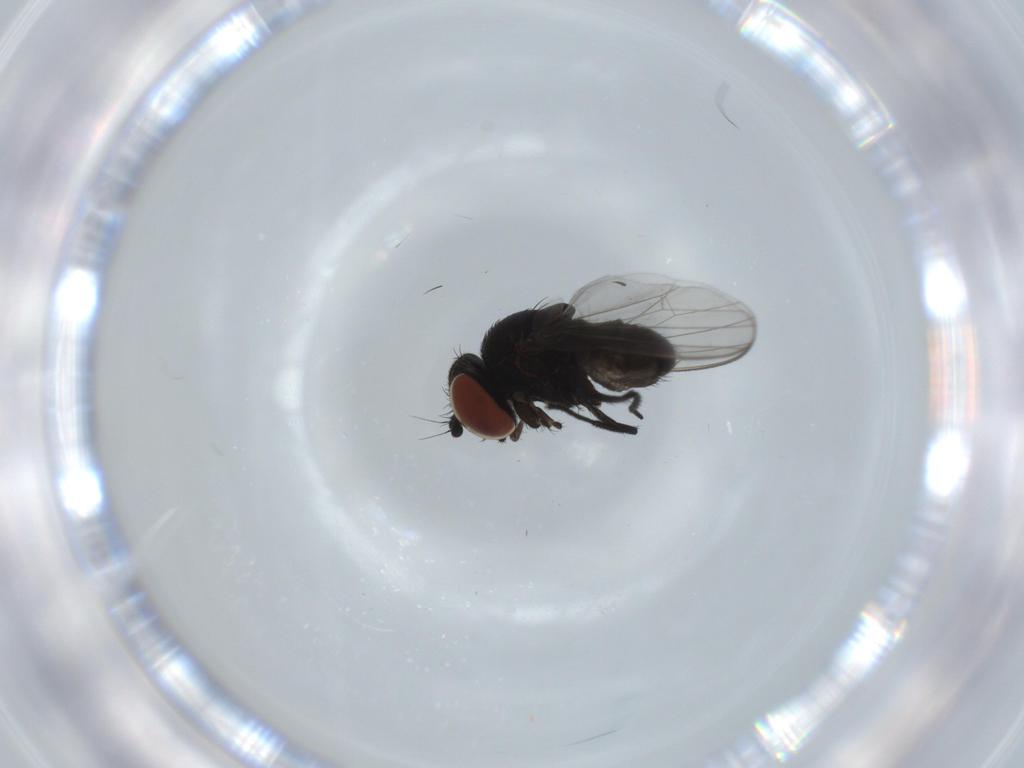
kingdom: Animalia
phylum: Arthropoda
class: Insecta
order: Diptera
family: Milichiidae
